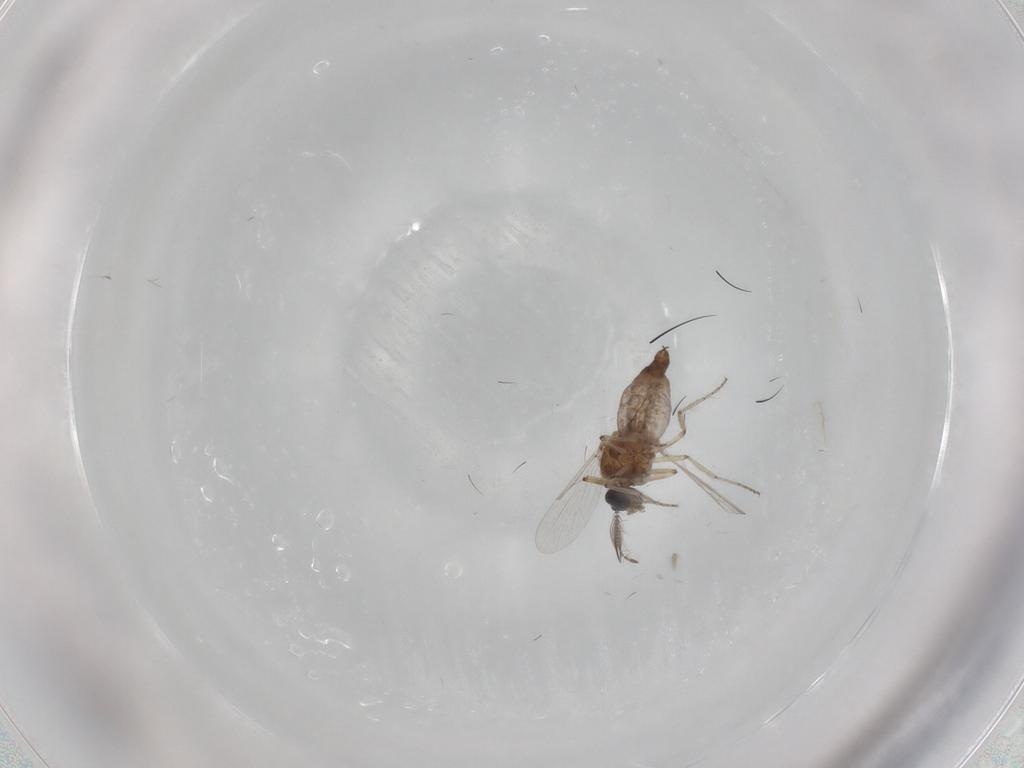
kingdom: Animalia
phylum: Arthropoda
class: Insecta
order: Diptera
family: Ceratopogonidae
